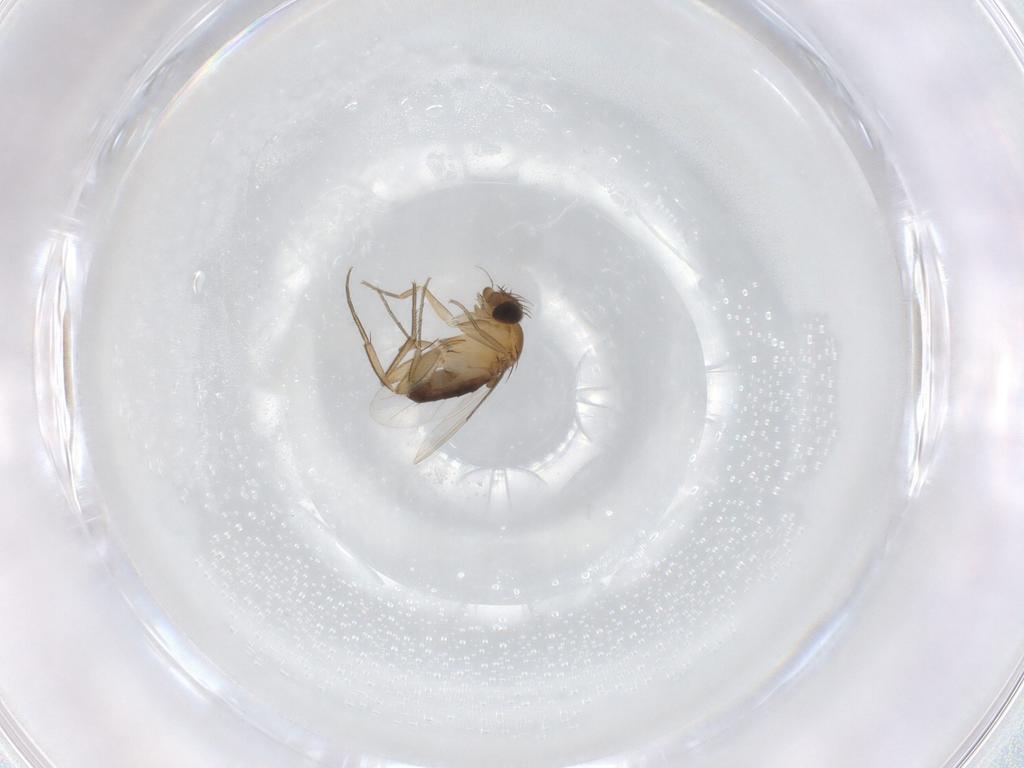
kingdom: Animalia
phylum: Arthropoda
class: Insecta
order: Diptera
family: Phoridae
